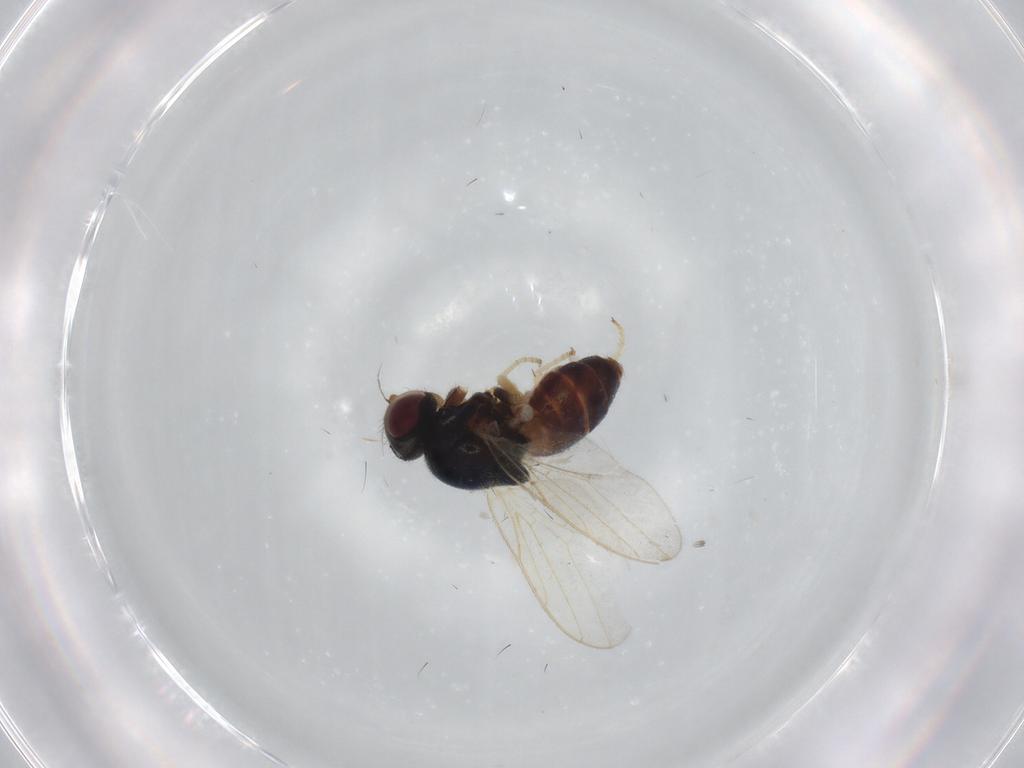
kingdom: Animalia
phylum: Arthropoda
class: Insecta
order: Diptera
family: Chloropidae
